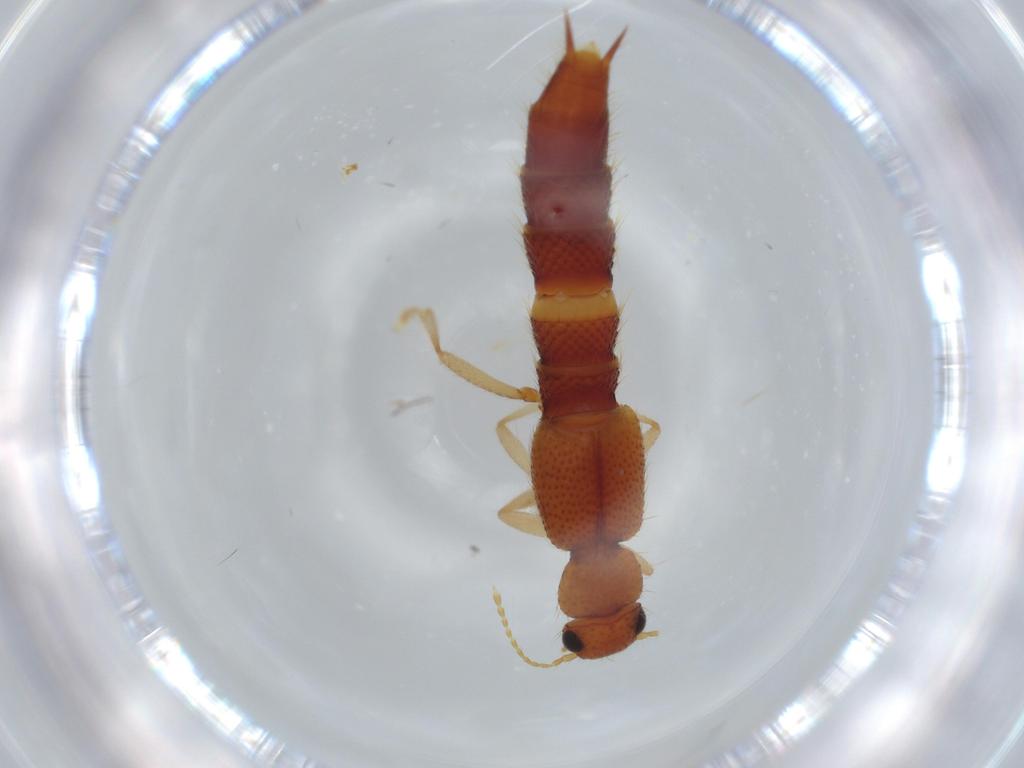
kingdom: Animalia
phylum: Arthropoda
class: Insecta
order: Coleoptera
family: Staphylinidae
